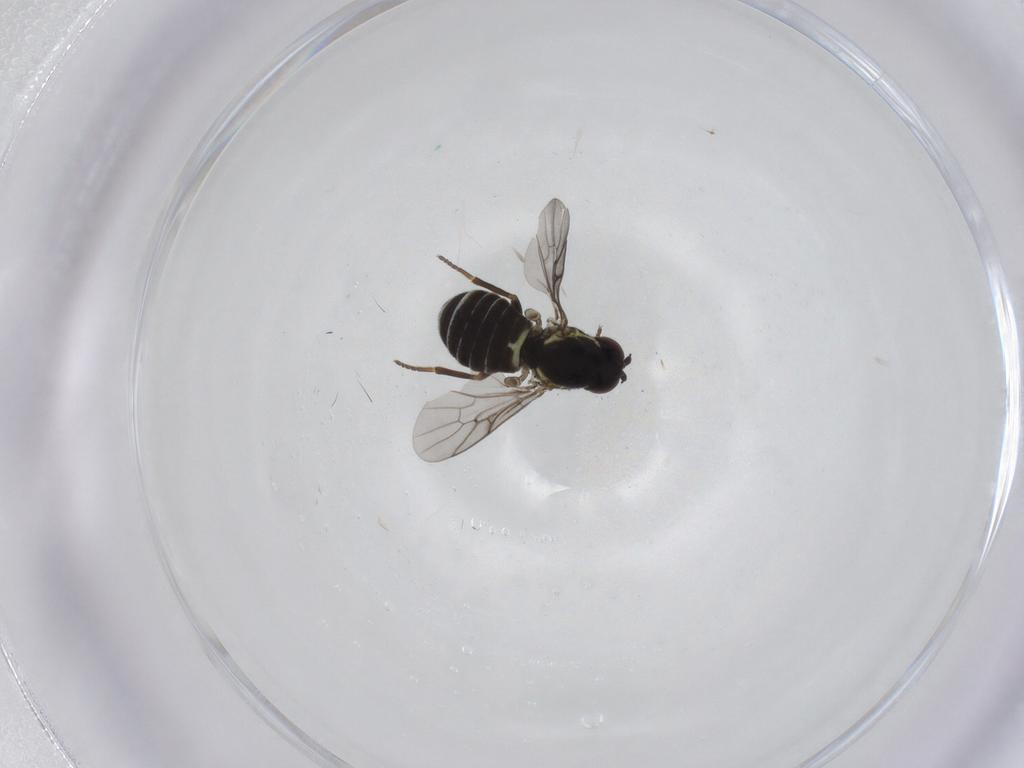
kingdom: Animalia
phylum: Arthropoda
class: Insecta
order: Diptera
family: Bombyliidae
